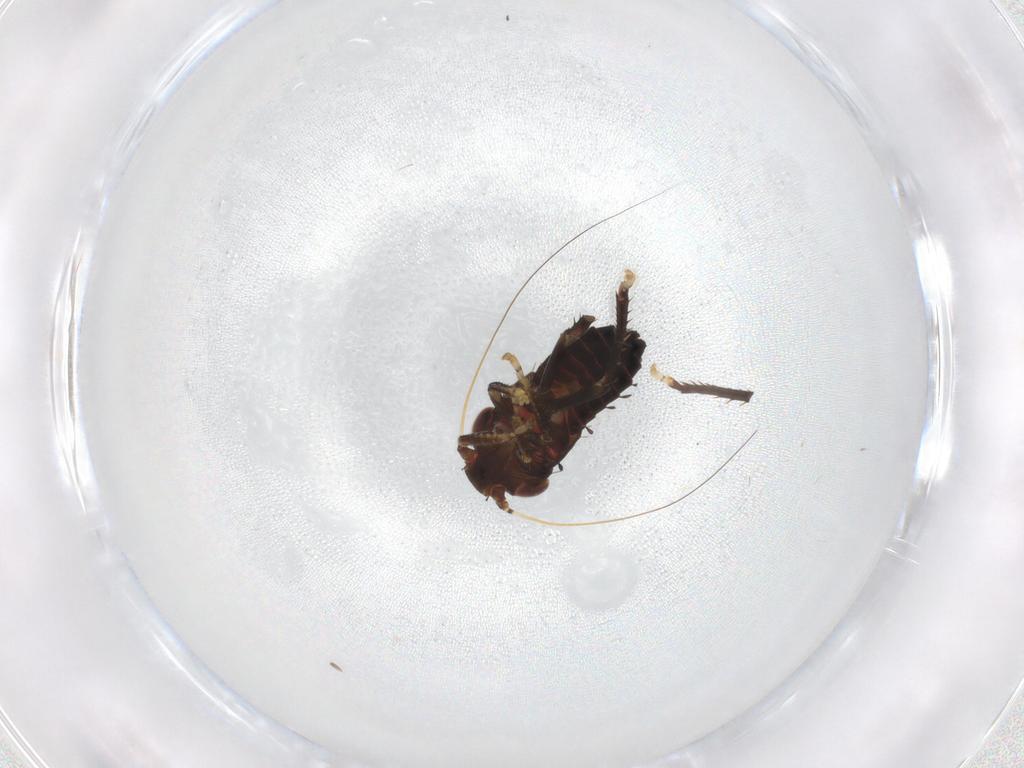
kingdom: Animalia
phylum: Arthropoda
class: Insecta
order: Hemiptera
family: Cicadellidae
